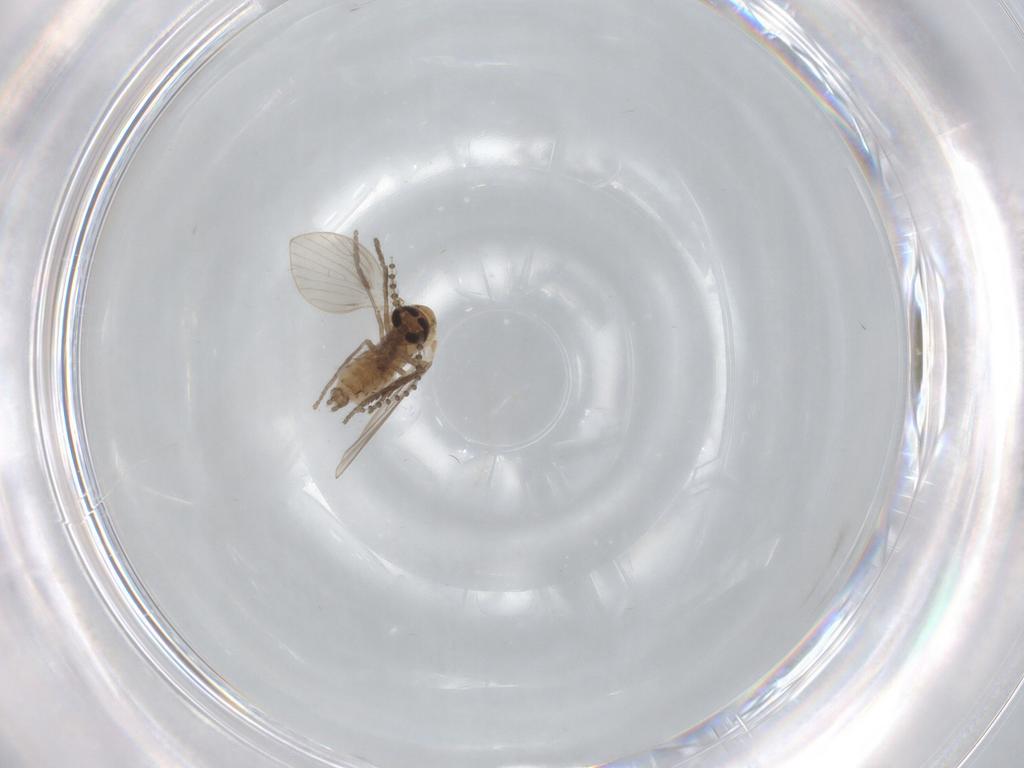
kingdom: Animalia
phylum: Arthropoda
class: Insecta
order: Diptera
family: Psychodidae
